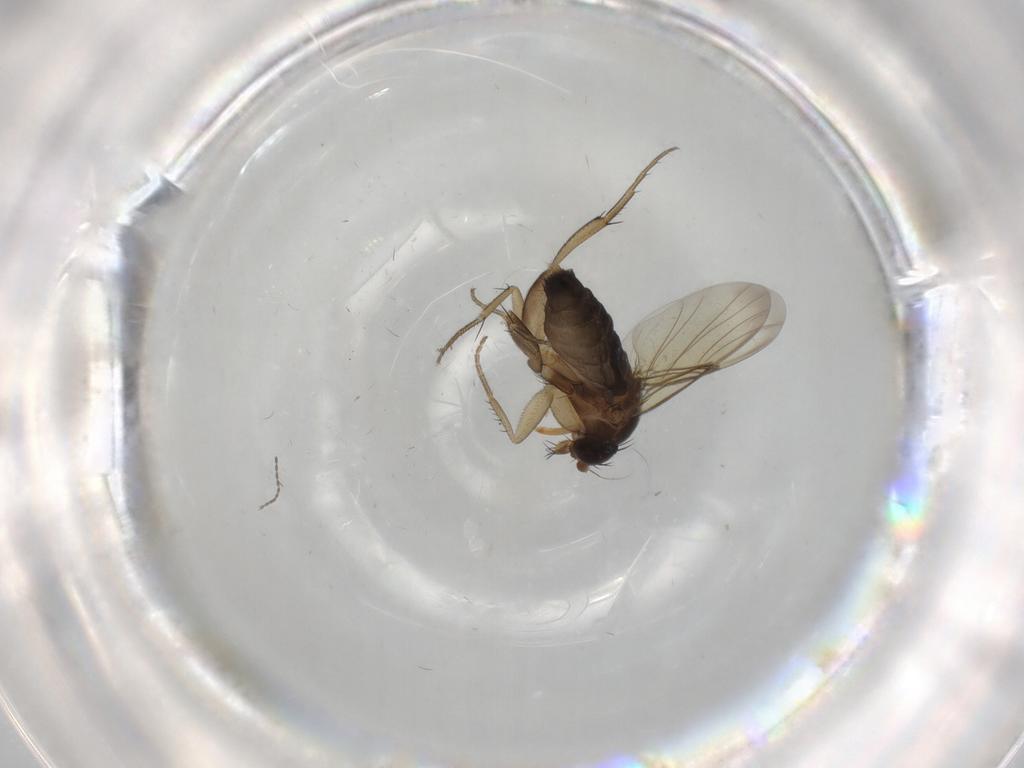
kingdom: Animalia
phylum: Arthropoda
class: Insecta
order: Diptera
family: Phoridae
